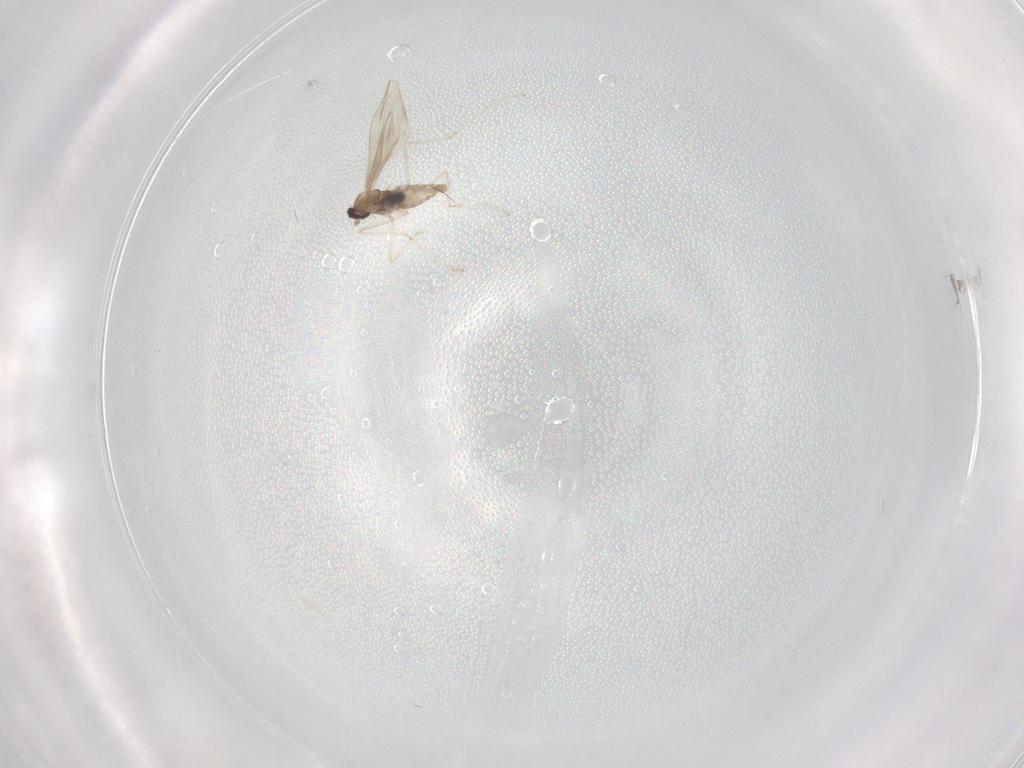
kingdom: Animalia
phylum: Arthropoda
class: Insecta
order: Diptera
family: Cecidomyiidae
